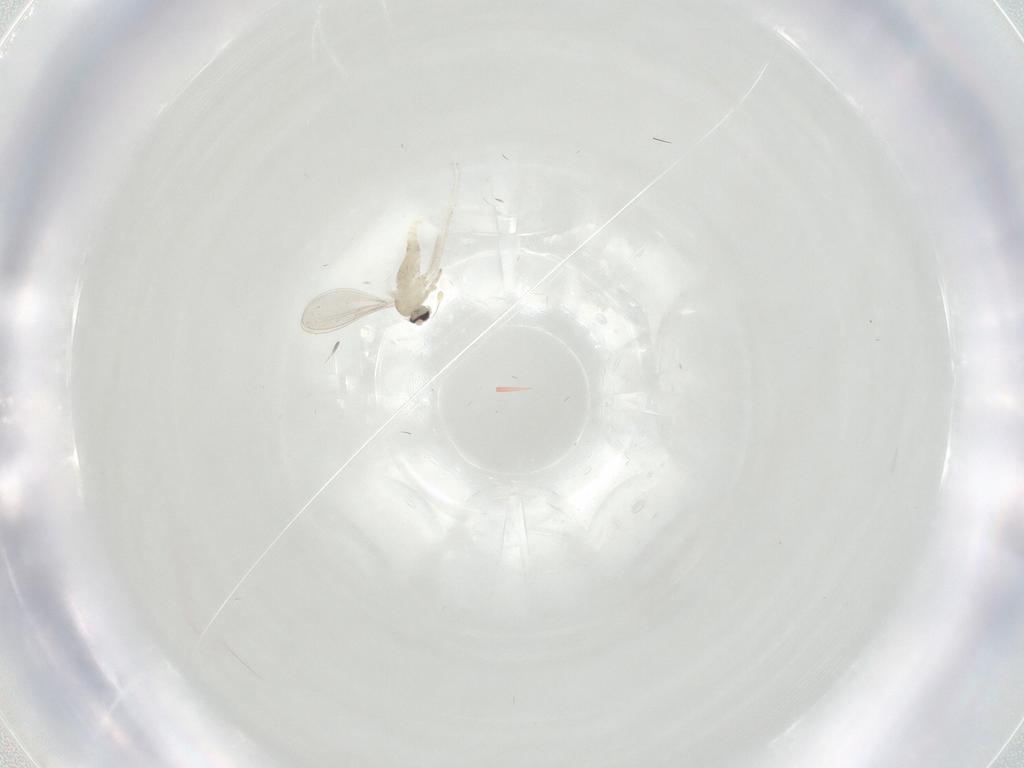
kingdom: Animalia
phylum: Arthropoda
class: Insecta
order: Diptera
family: Cecidomyiidae
